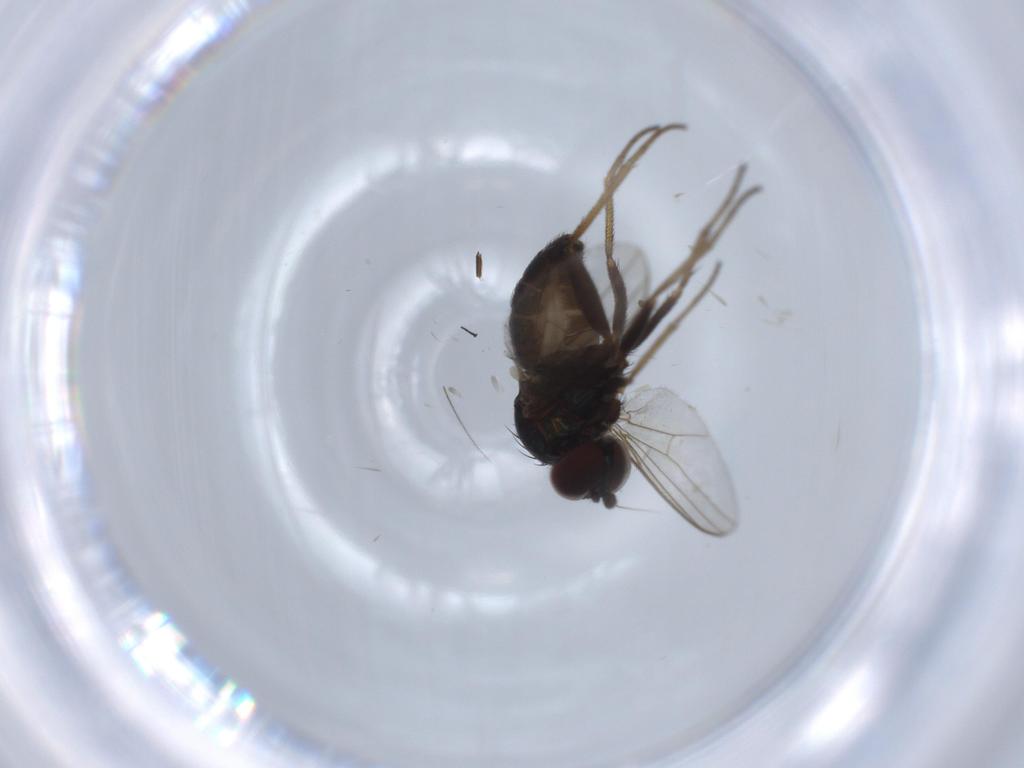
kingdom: Animalia
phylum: Arthropoda
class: Insecta
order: Diptera
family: Dolichopodidae
